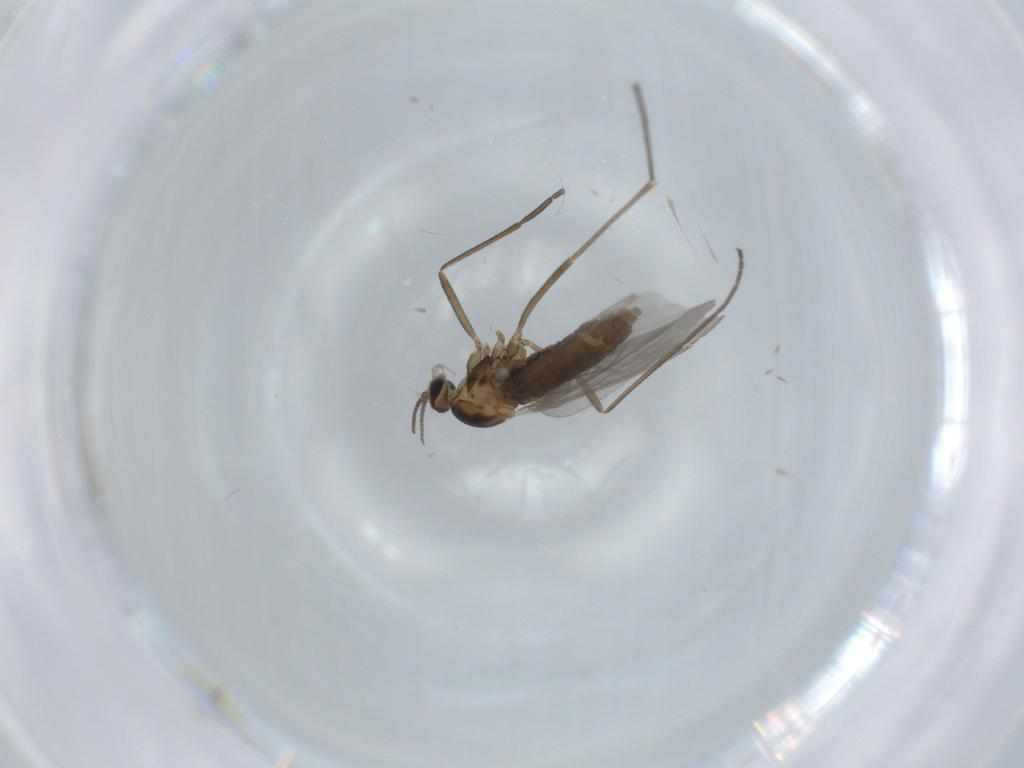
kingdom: Animalia
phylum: Arthropoda
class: Insecta
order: Diptera
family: Cecidomyiidae
